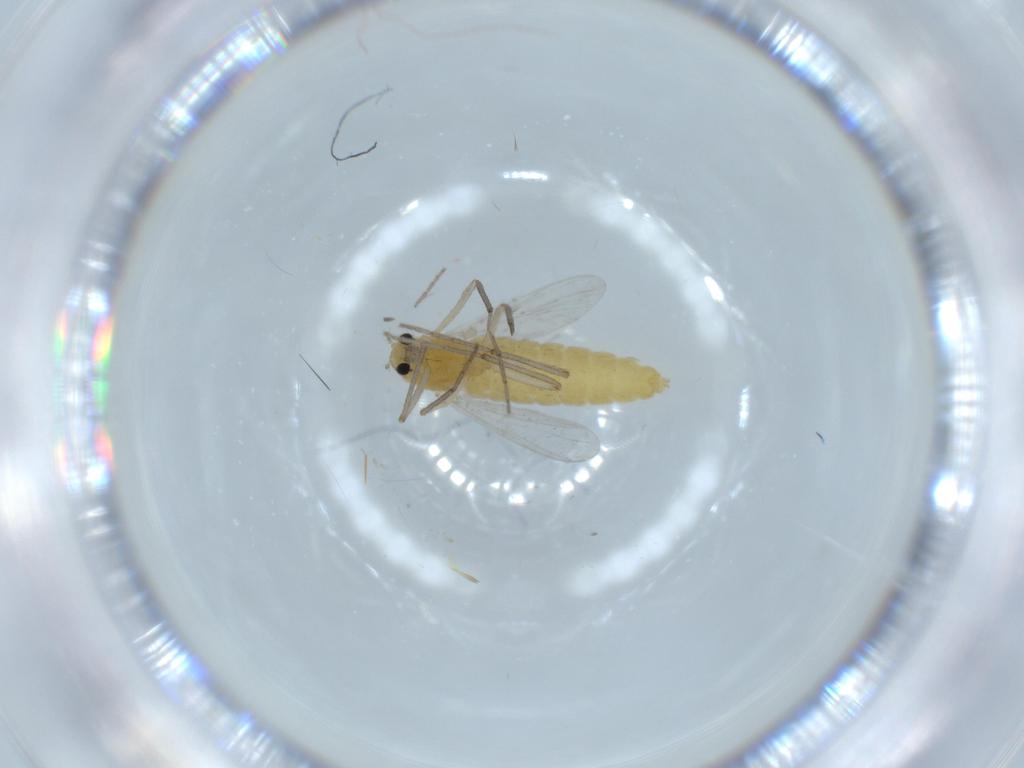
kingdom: Animalia
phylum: Arthropoda
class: Insecta
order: Diptera
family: Chironomidae
